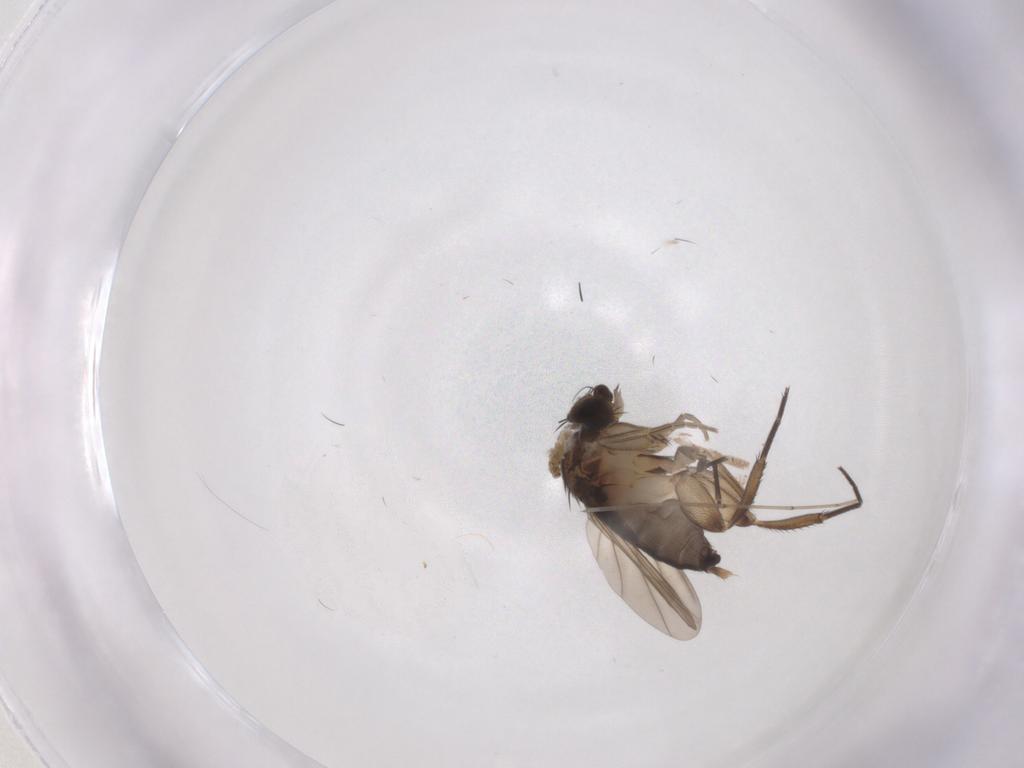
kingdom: Animalia
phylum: Arthropoda
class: Insecta
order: Diptera
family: Phoridae
